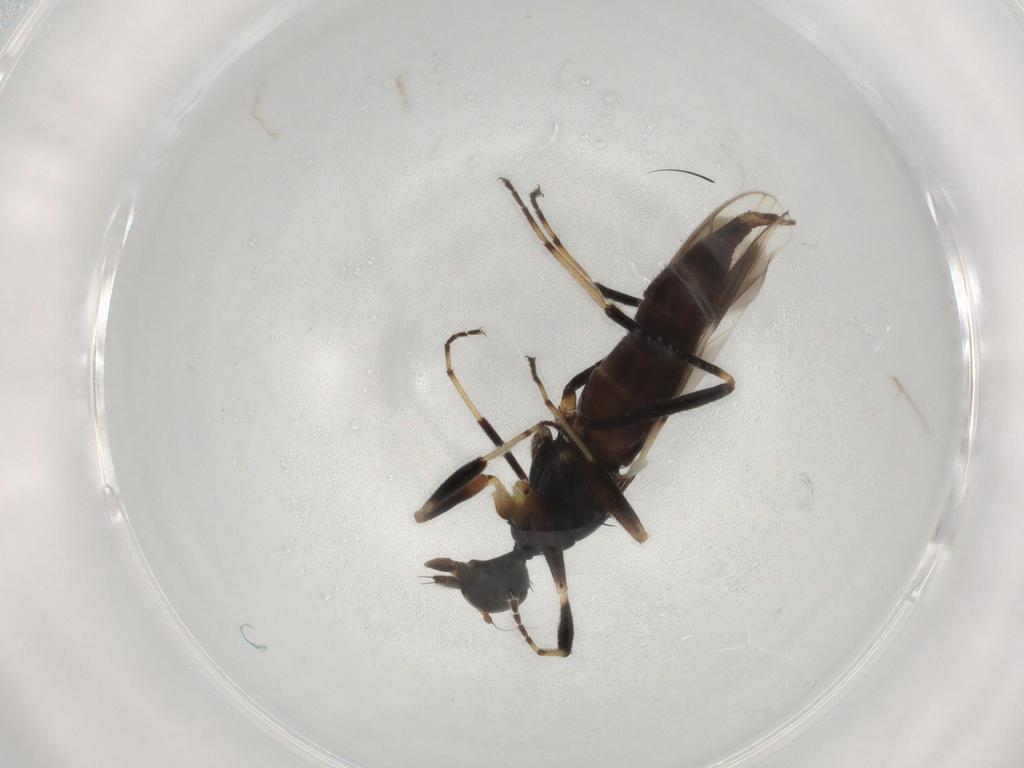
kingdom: Animalia
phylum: Arthropoda
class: Insecta
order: Diptera
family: Hybotidae
